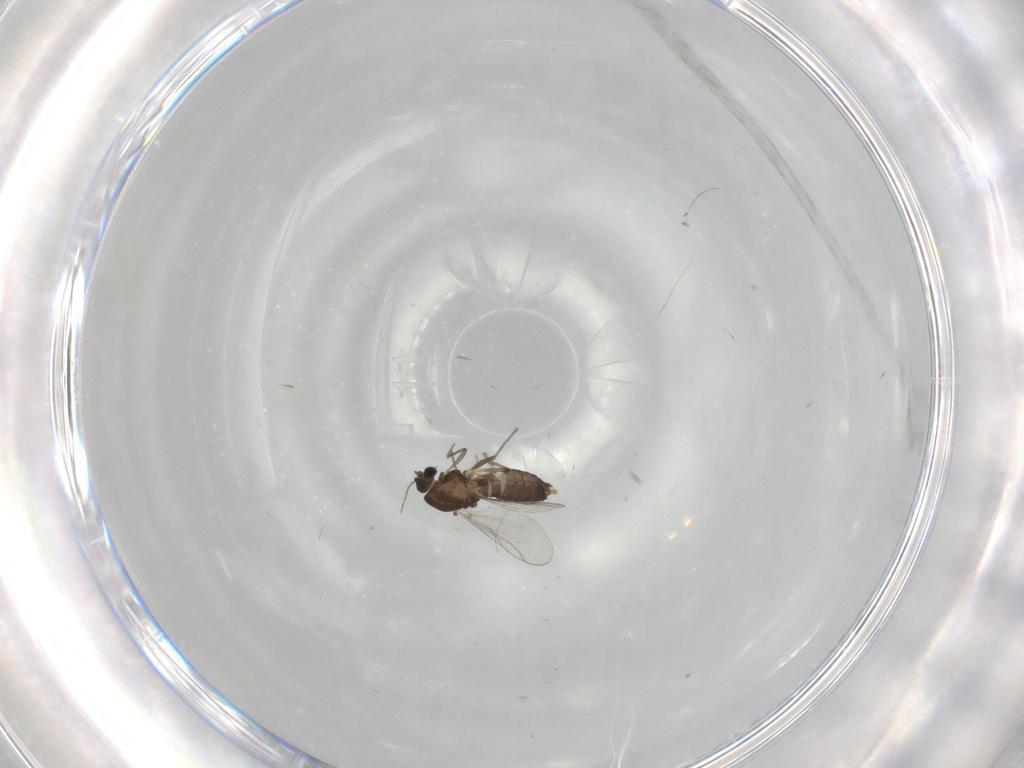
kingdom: Animalia
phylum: Arthropoda
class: Insecta
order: Diptera
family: Chironomidae
